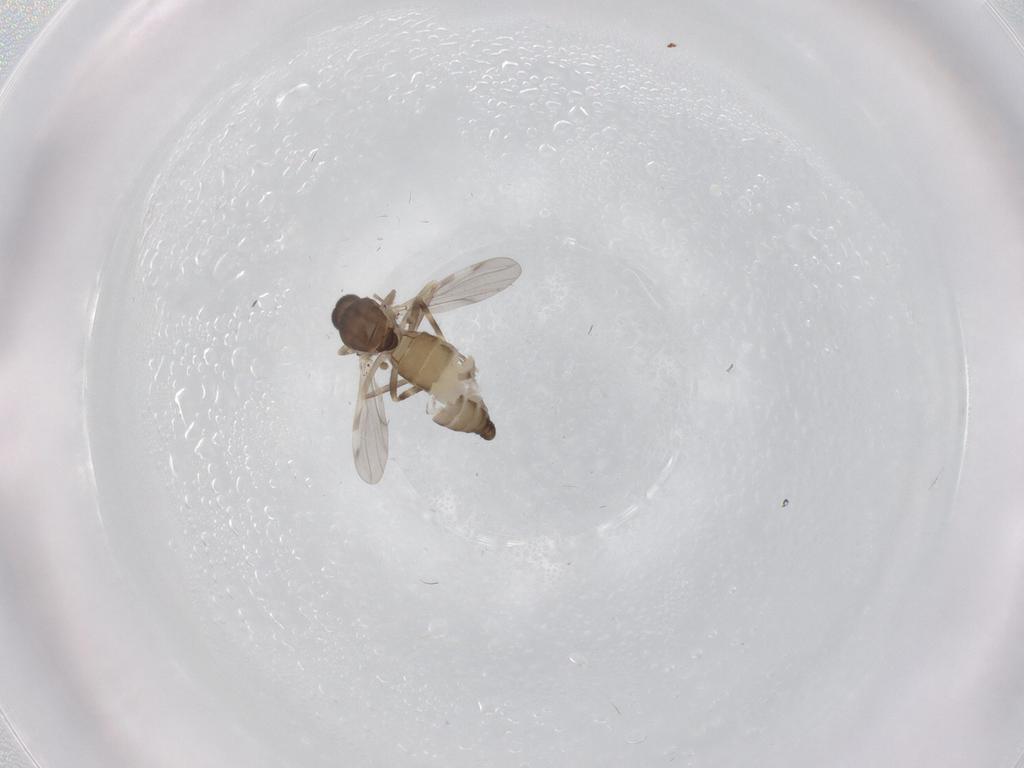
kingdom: Animalia
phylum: Arthropoda
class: Insecta
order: Diptera
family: Ceratopogonidae
